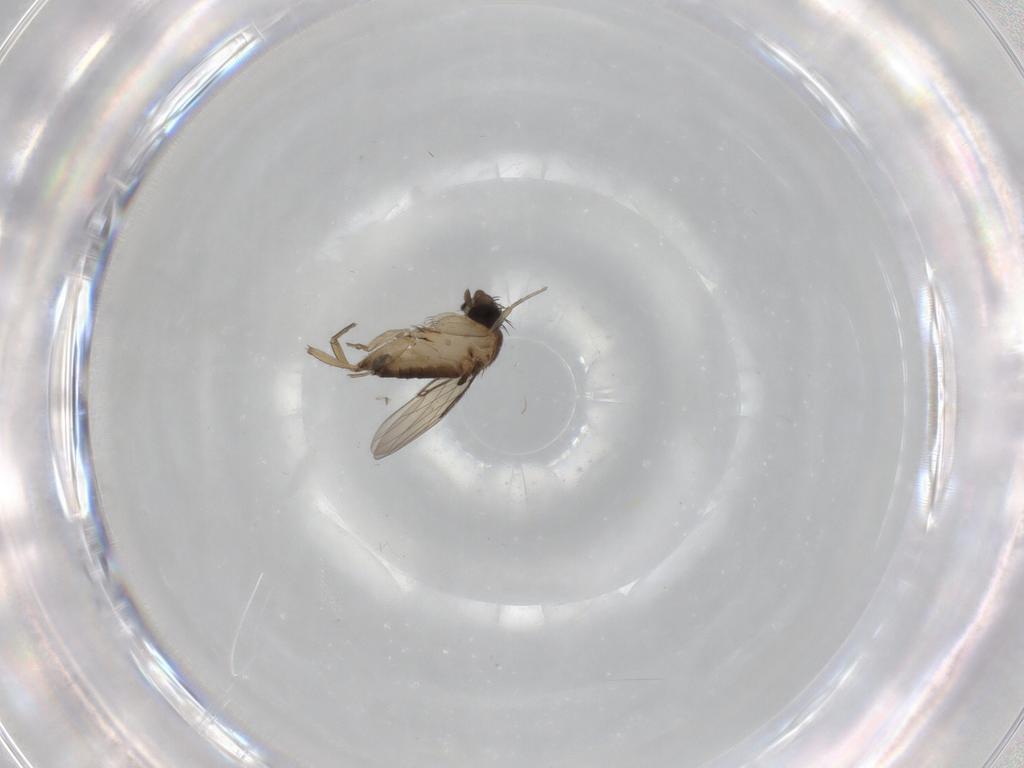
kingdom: Animalia
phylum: Arthropoda
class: Insecta
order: Diptera
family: Phoridae
